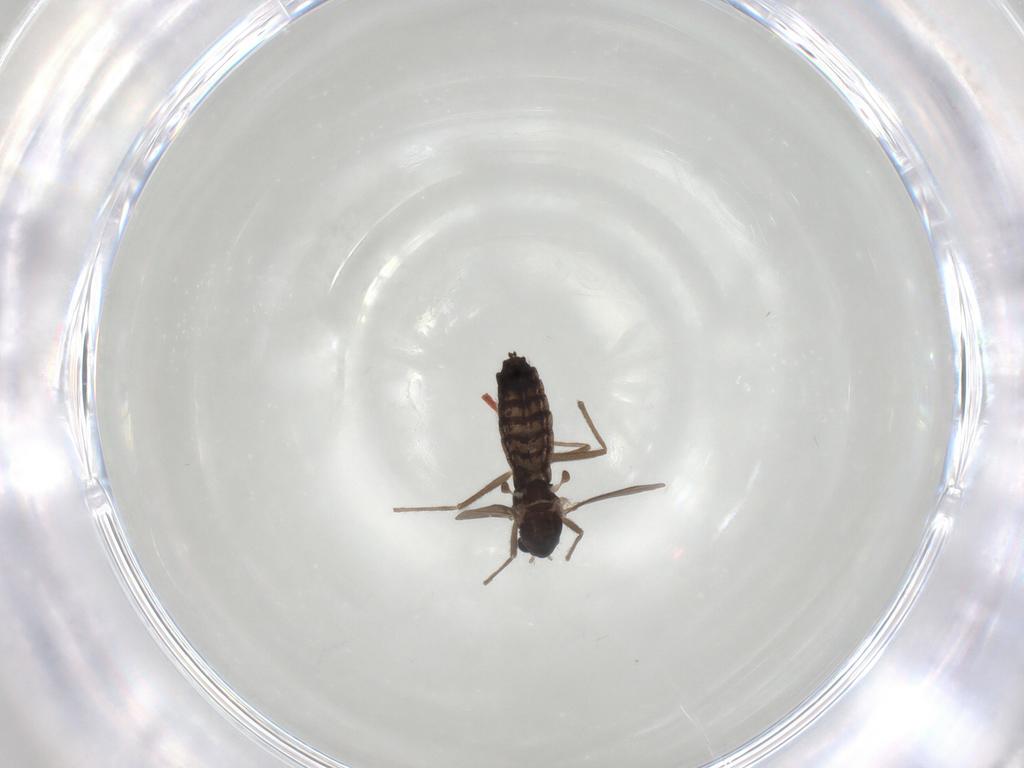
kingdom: Animalia
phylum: Arthropoda
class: Insecta
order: Diptera
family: Chironomidae
